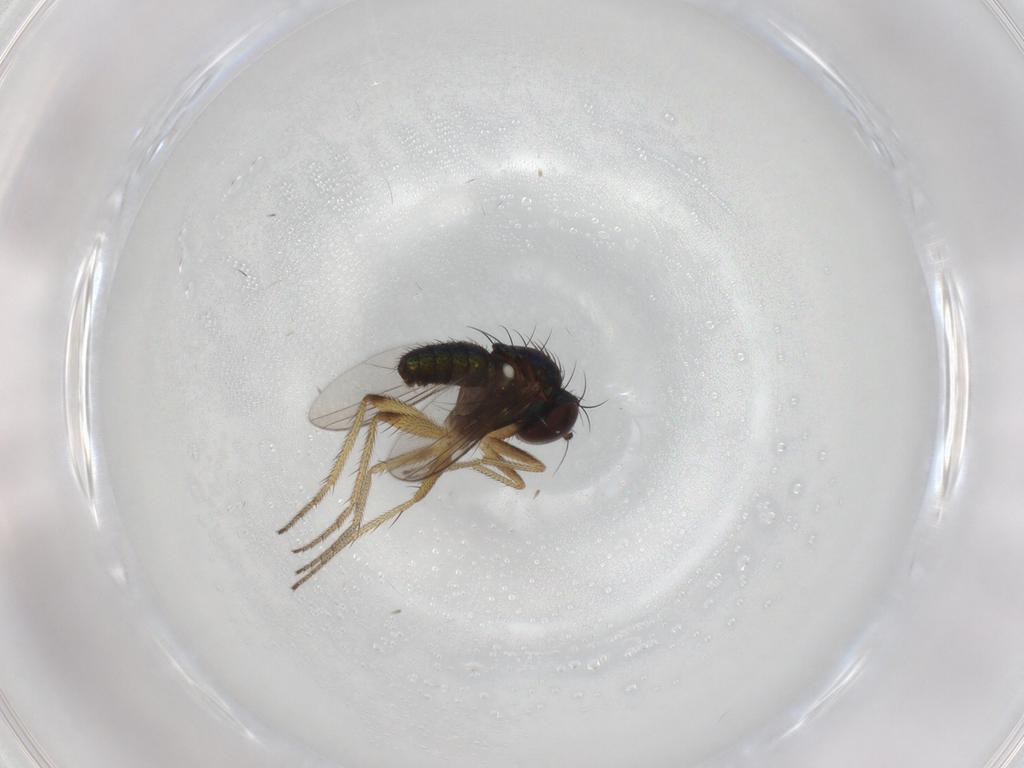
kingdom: Animalia
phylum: Arthropoda
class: Insecta
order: Diptera
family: Dolichopodidae
